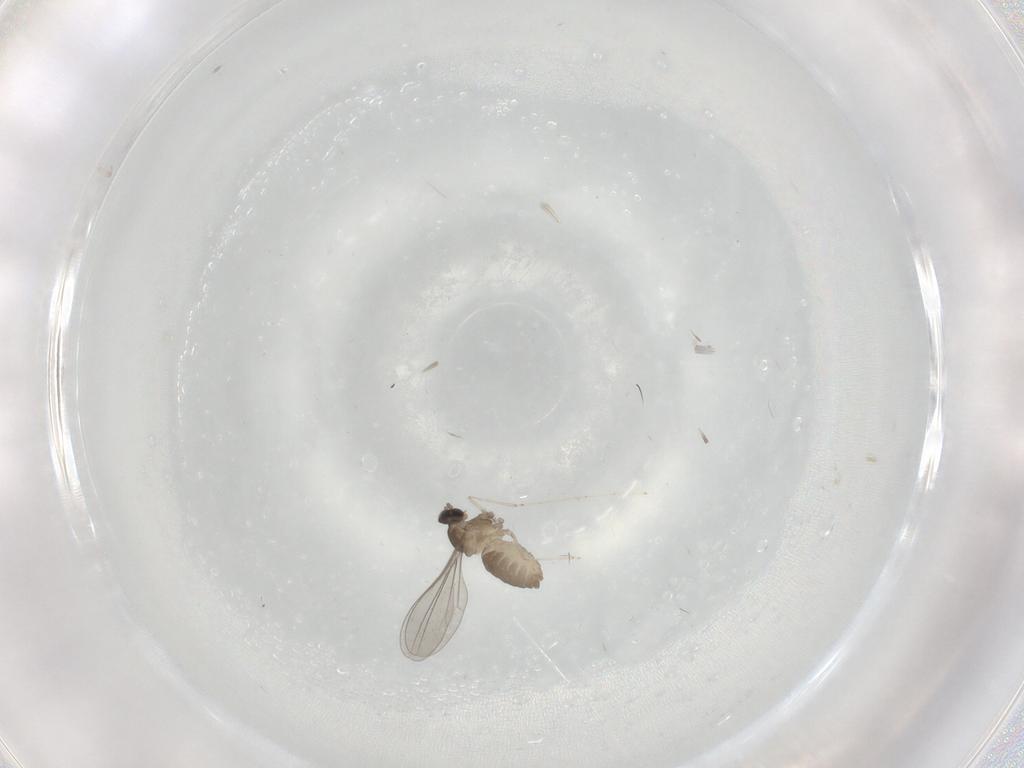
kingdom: Animalia
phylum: Arthropoda
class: Insecta
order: Diptera
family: Cecidomyiidae
